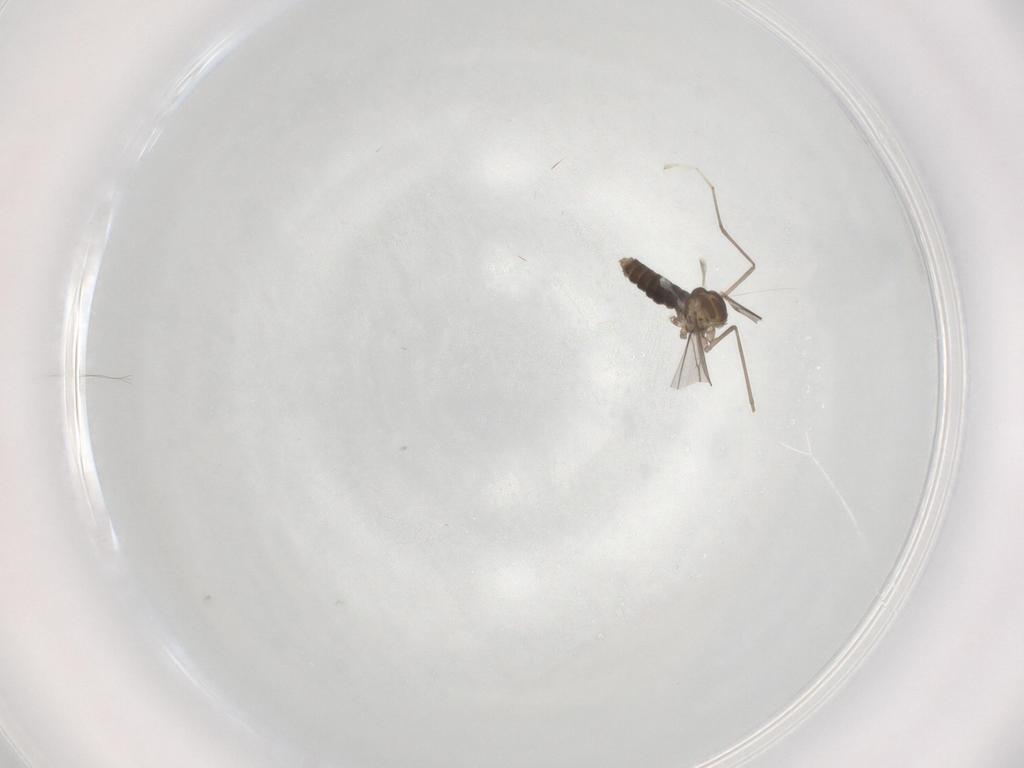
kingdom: Animalia
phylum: Arthropoda
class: Insecta
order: Diptera
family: Cecidomyiidae
